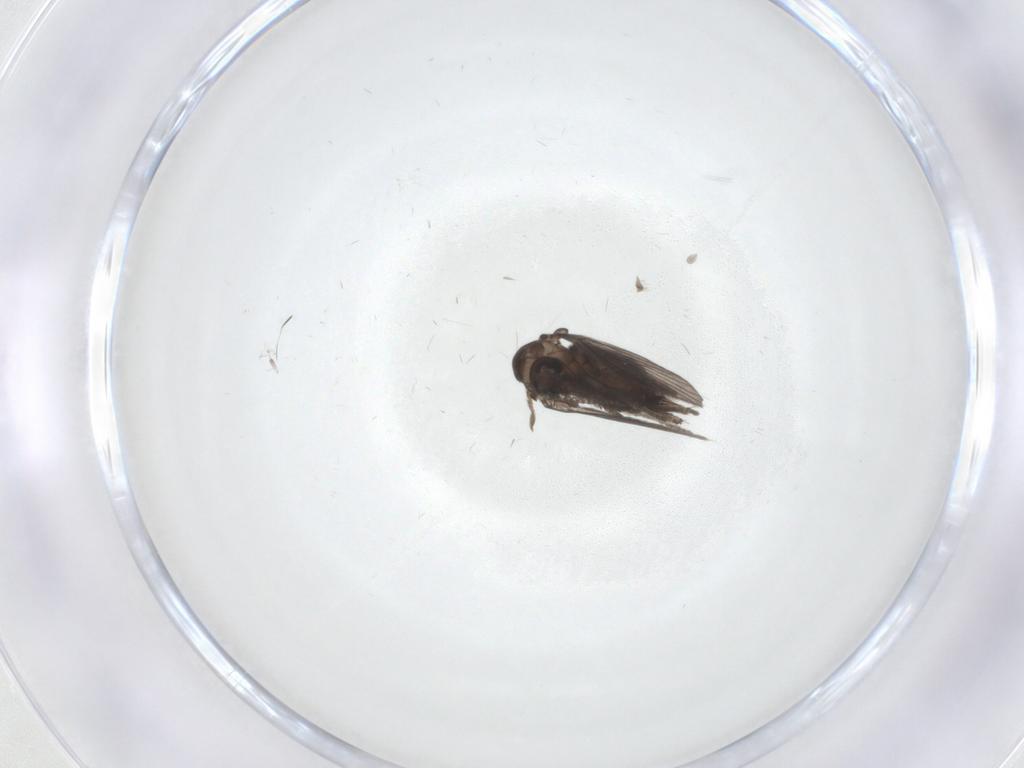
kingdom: Animalia
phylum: Arthropoda
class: Insecta
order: Diptera
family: Psychodidae
